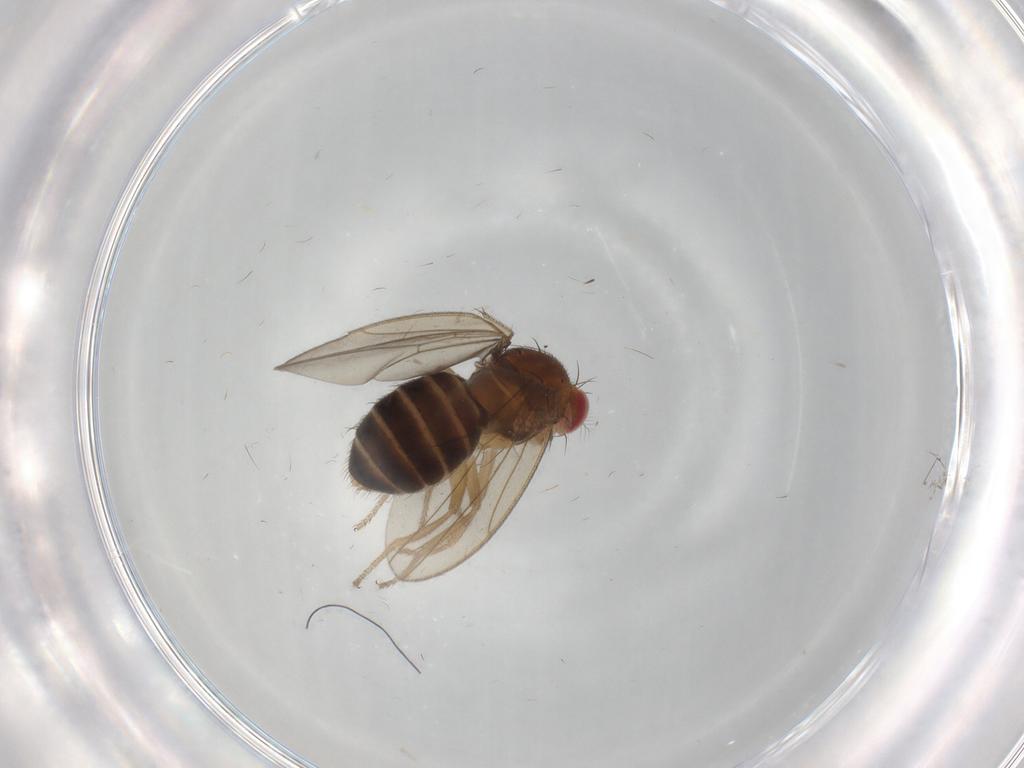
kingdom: Animalia
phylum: Arthropoda
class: Insecta
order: Diptera
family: Drosophilidae
